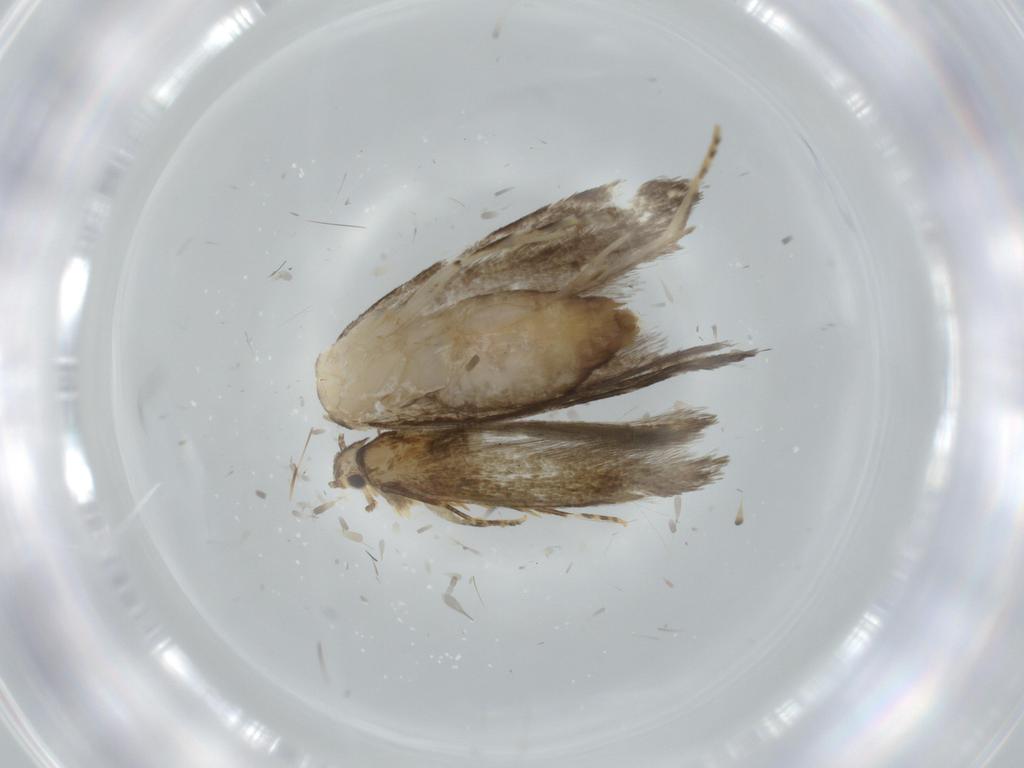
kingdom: Animalia
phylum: Arthropoda
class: Insecta
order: Lepidoptera
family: Tineidae
